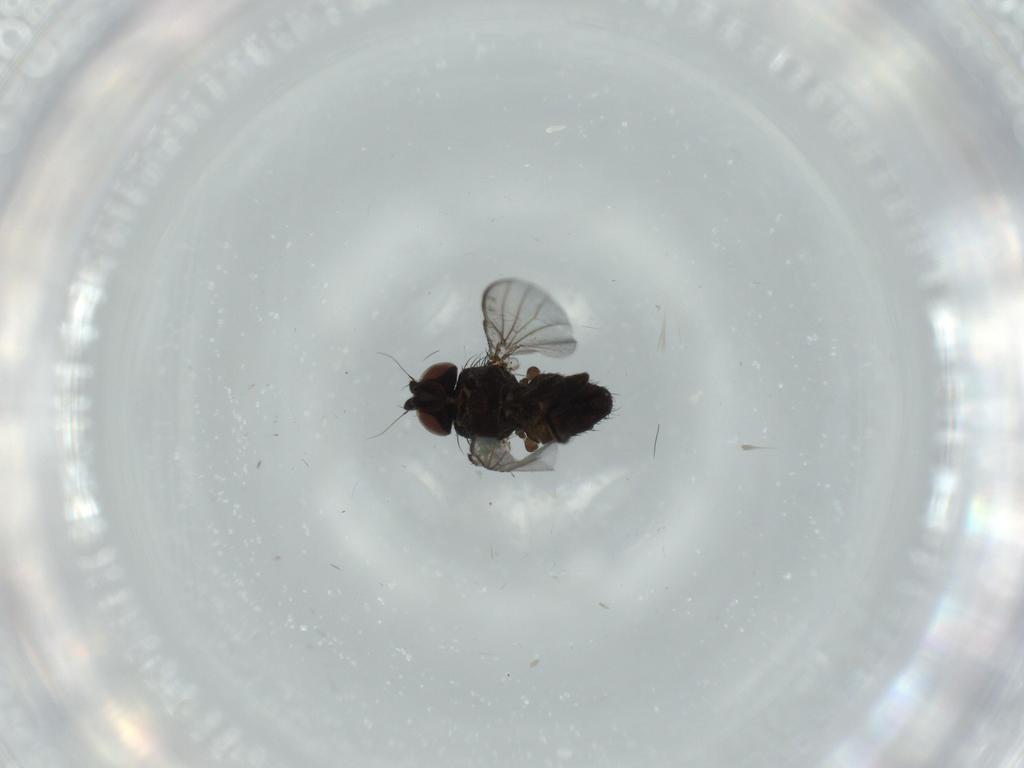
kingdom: Animalia
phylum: Arthropoda
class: Insecta
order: Diptera
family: Milichiidae
